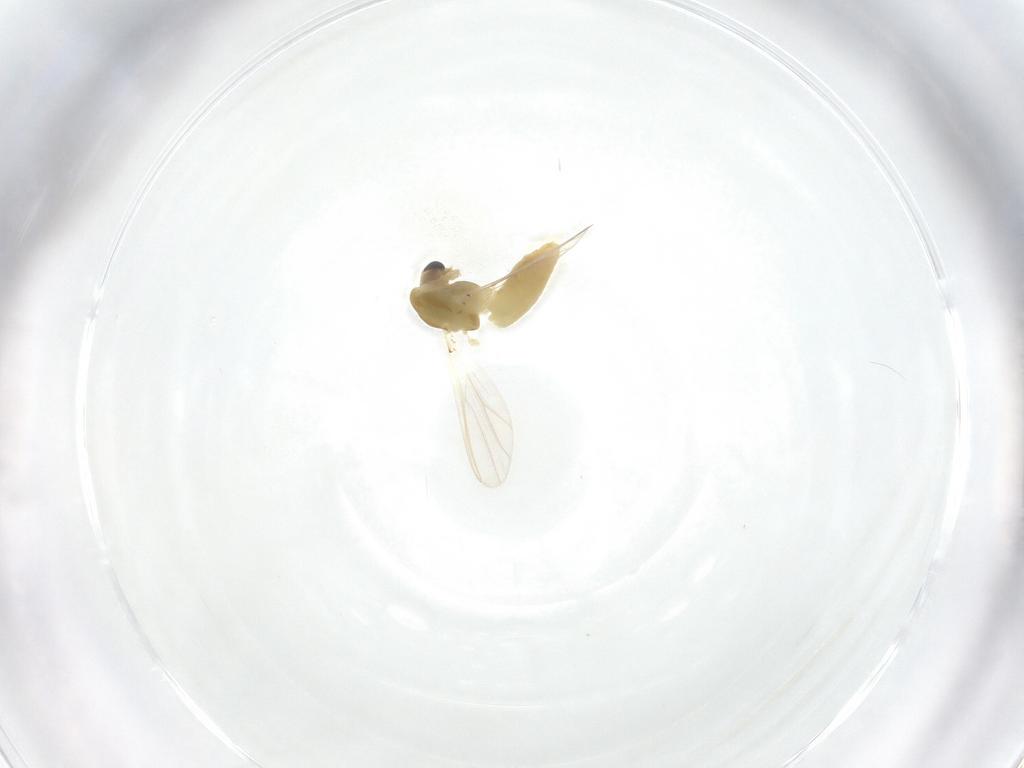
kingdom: Animalia
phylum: Arthropoda
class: Insecta
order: Diptera
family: Chironomidae
